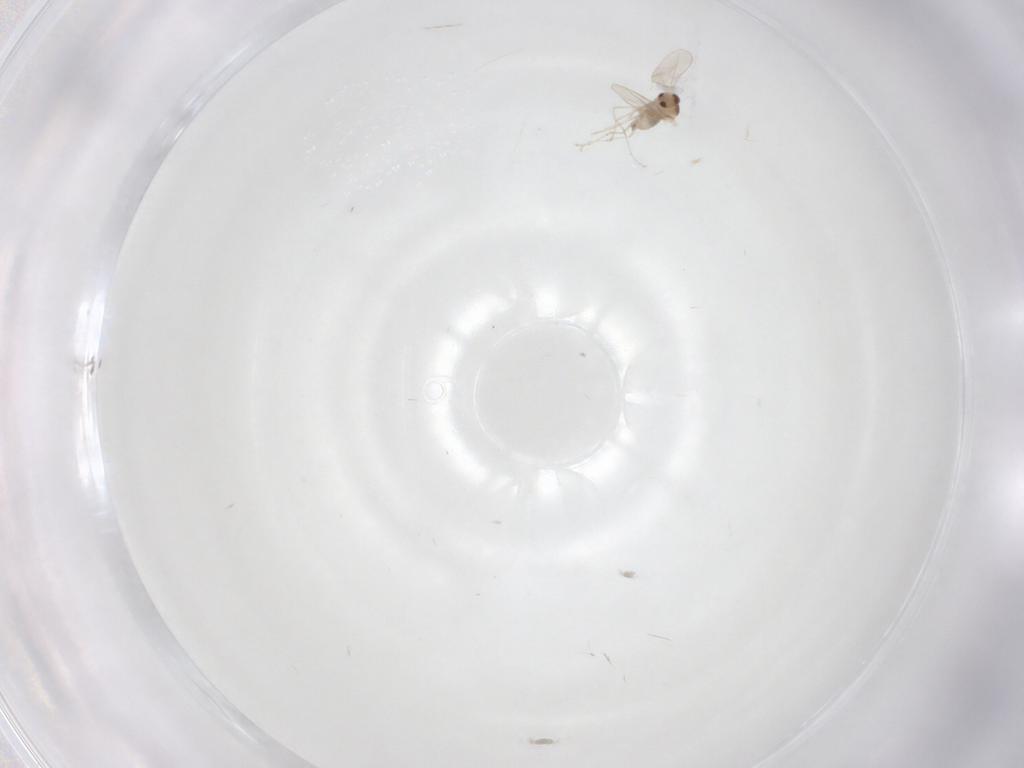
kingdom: Animalia
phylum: Arthropoda
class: Insecta
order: Diptera
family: Cecidomyiidae
